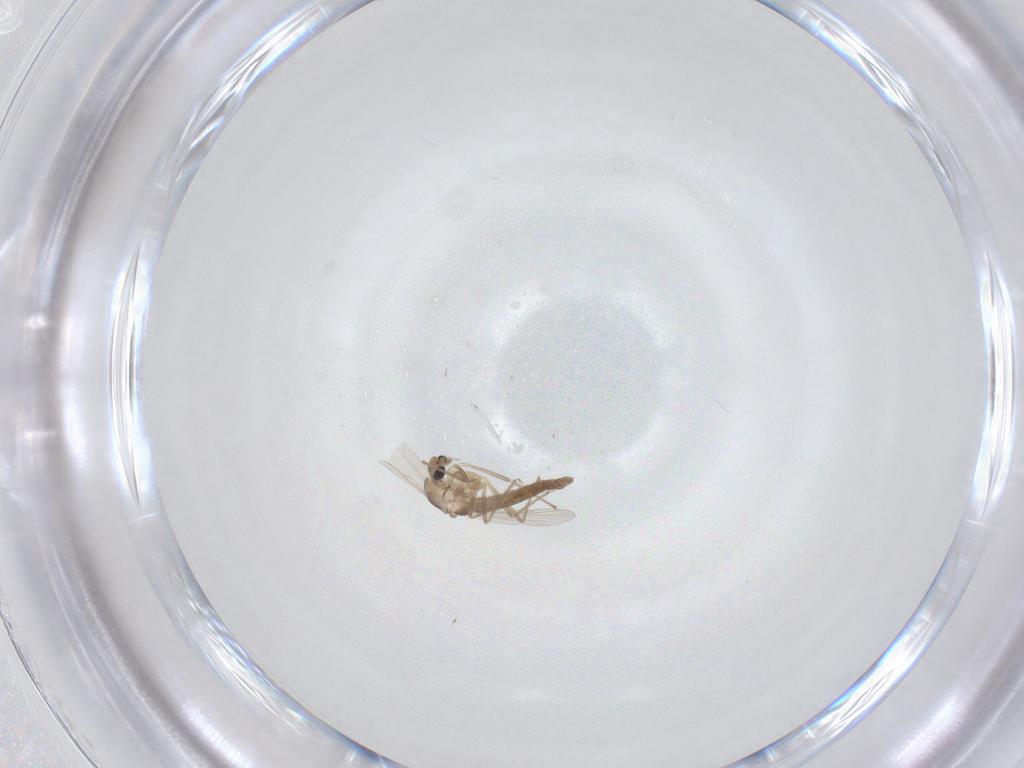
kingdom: Animalia
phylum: Arthropoda
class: Insecta
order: Diptera
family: Chironomidae
